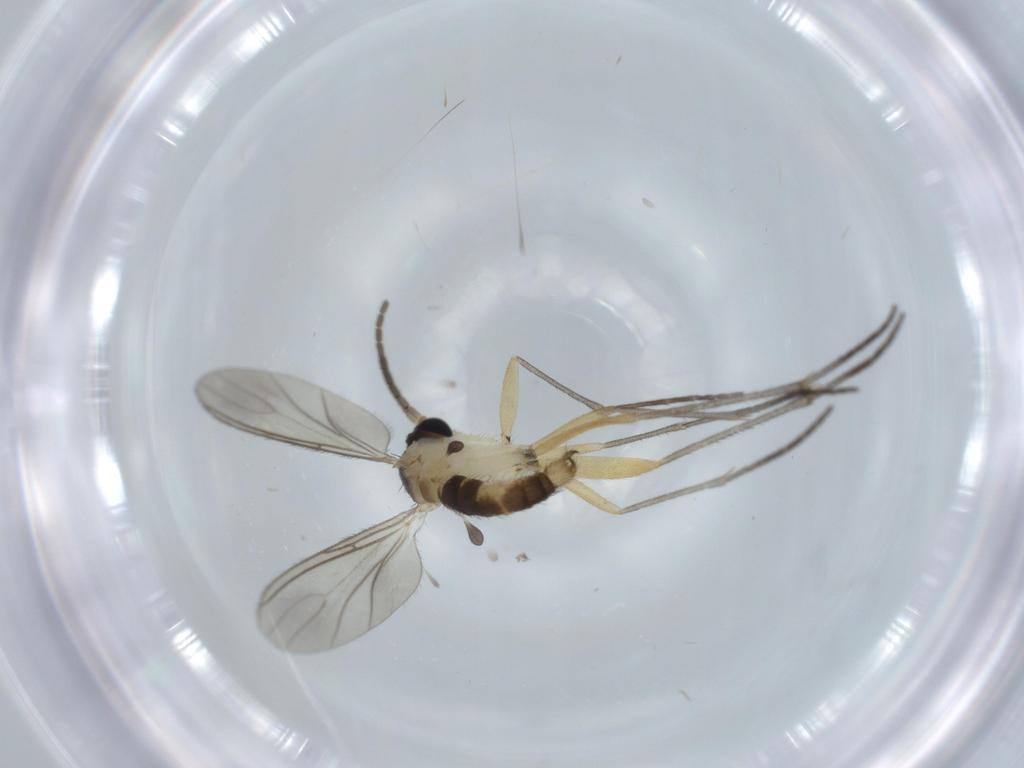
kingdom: Animalia
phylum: Arthropoda
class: Insecta
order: Diptera
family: Sciaridae
